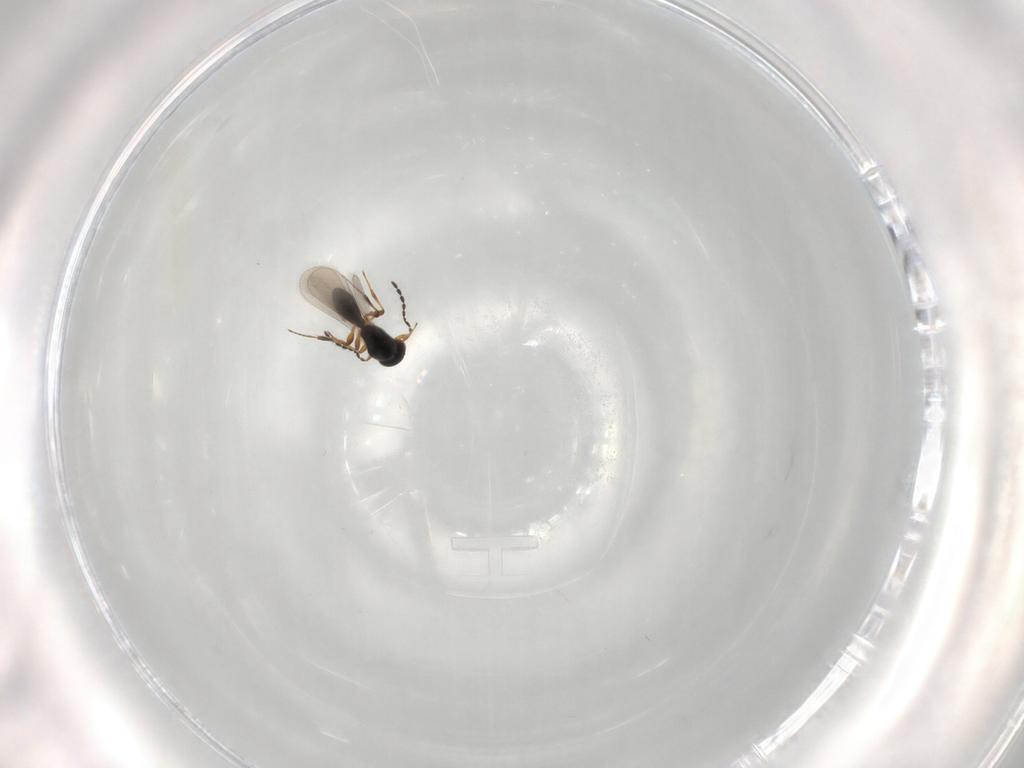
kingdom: Animalia
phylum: Arthropoda
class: Insecta
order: Hymenoptera
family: Platygastridae
